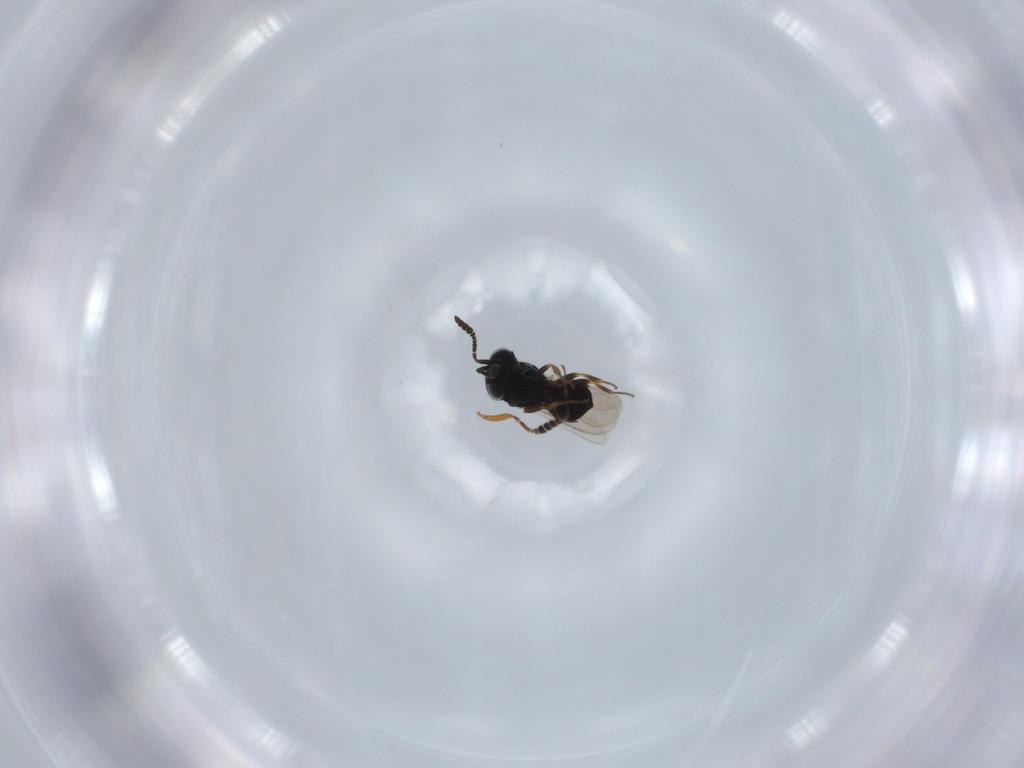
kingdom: Animalia
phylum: Arthropoda
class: Insecta
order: Hymenoptera
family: Scelionidae
